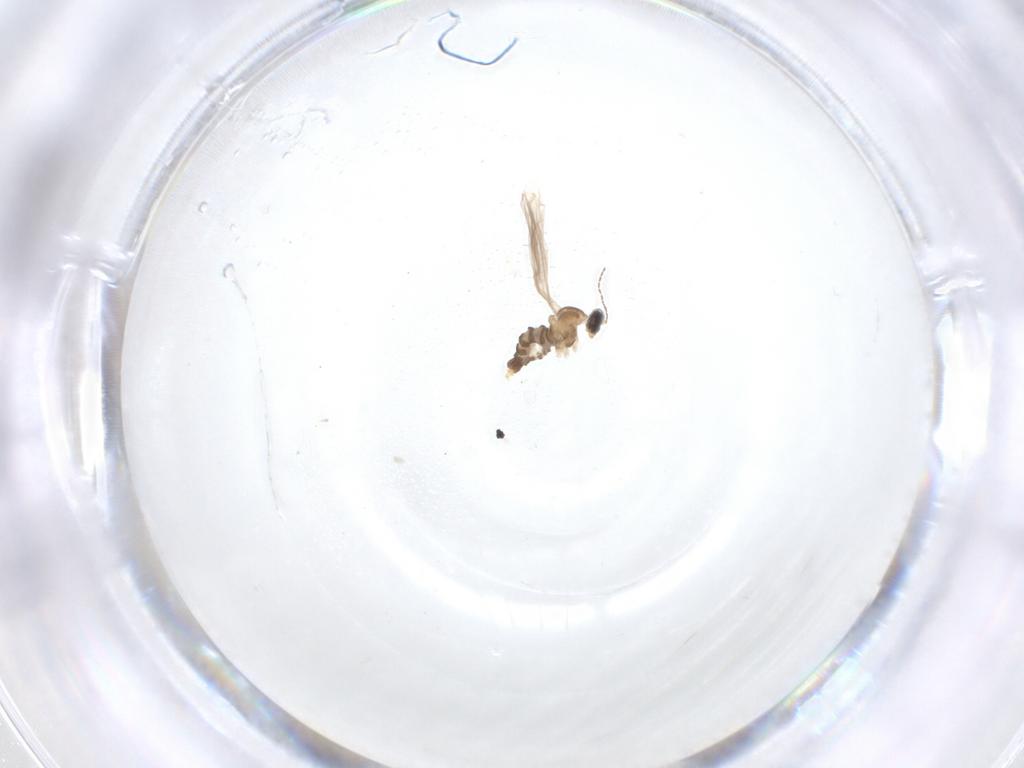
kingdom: Animalia
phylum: Arthropoda
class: Insecta
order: Diptera
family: Cecidomyiidae
